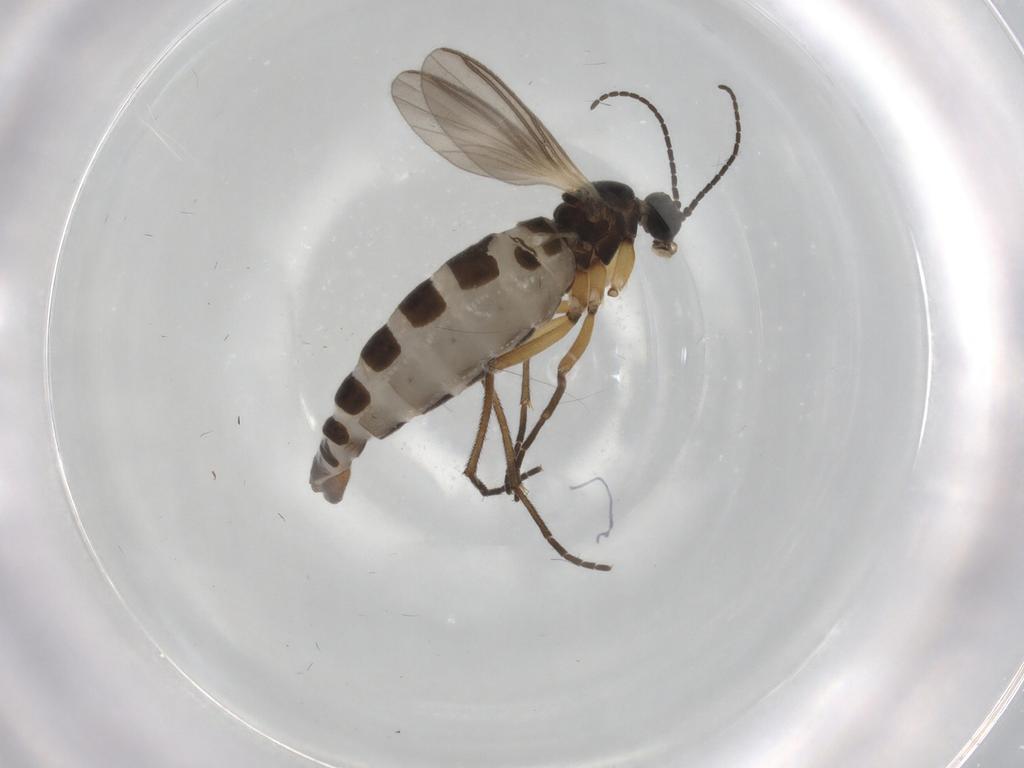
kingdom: Animalia
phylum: Arthropoda
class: Insecta
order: Diptera
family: Sciaridae
